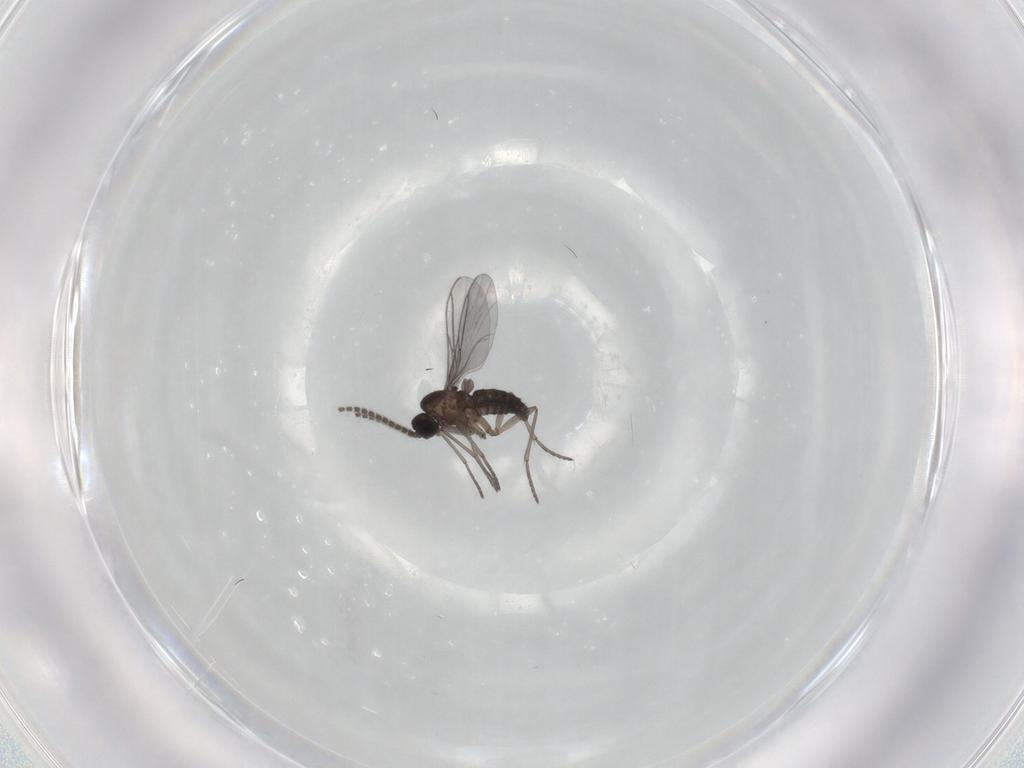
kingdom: Animalia
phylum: Arthropoda
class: Insecta
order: Diptera
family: Tabanidae
